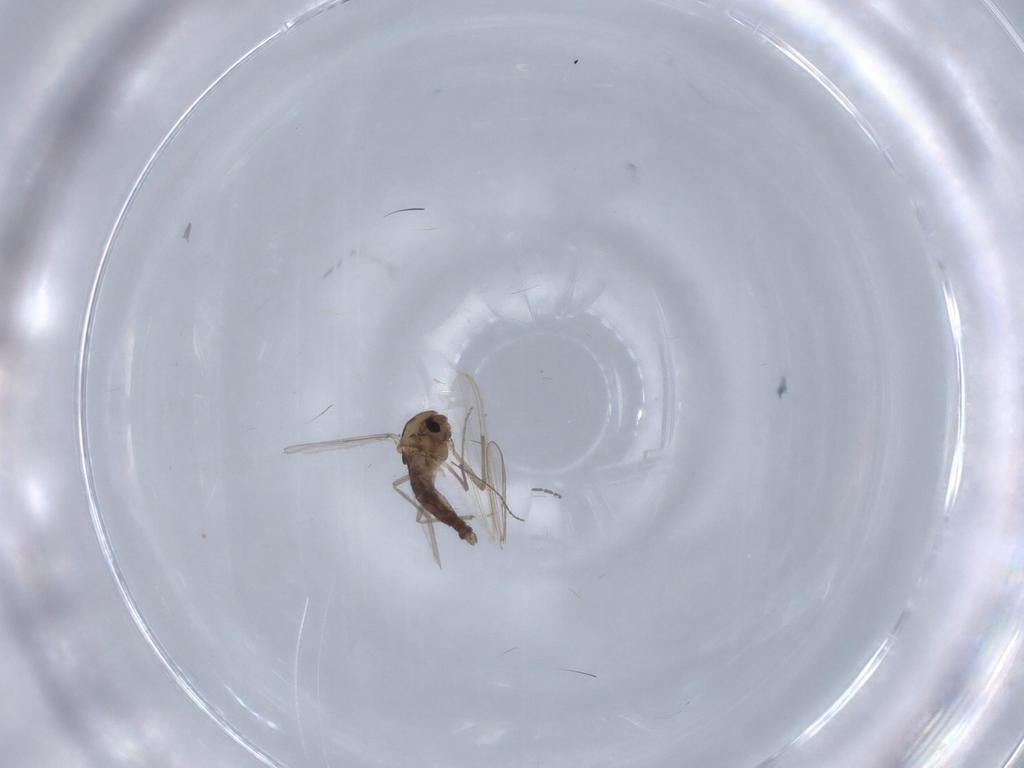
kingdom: Animalia
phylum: Arthropoda
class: Insecta
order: Diptera
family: Chironomidae
